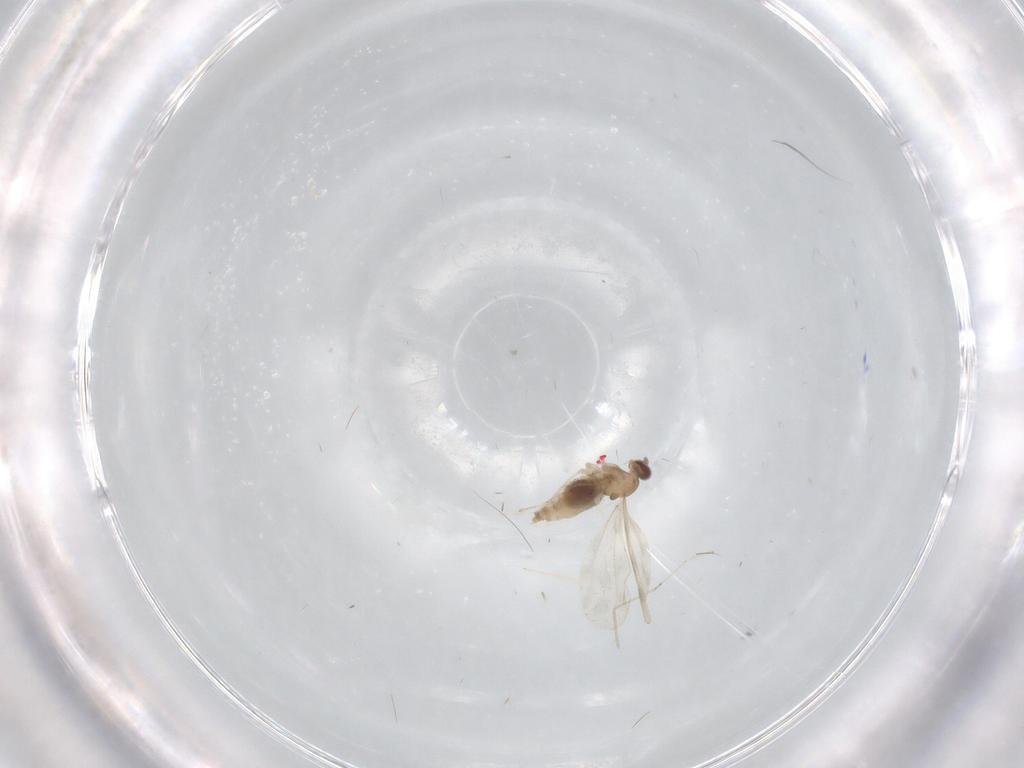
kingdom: Animalia
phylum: Arthropoda
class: Insecta
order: Diptera
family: Cecidomyiidae
